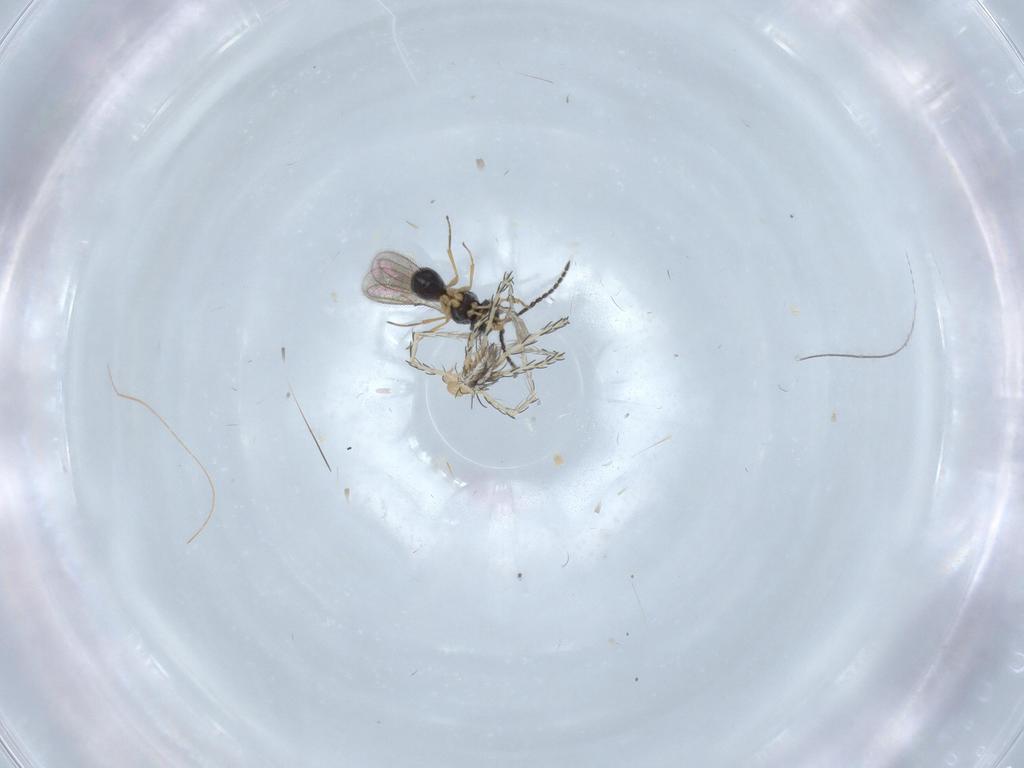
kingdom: Animalia
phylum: Arthropoda
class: Arachnida
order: Trombidiformes
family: Erythraeidae
